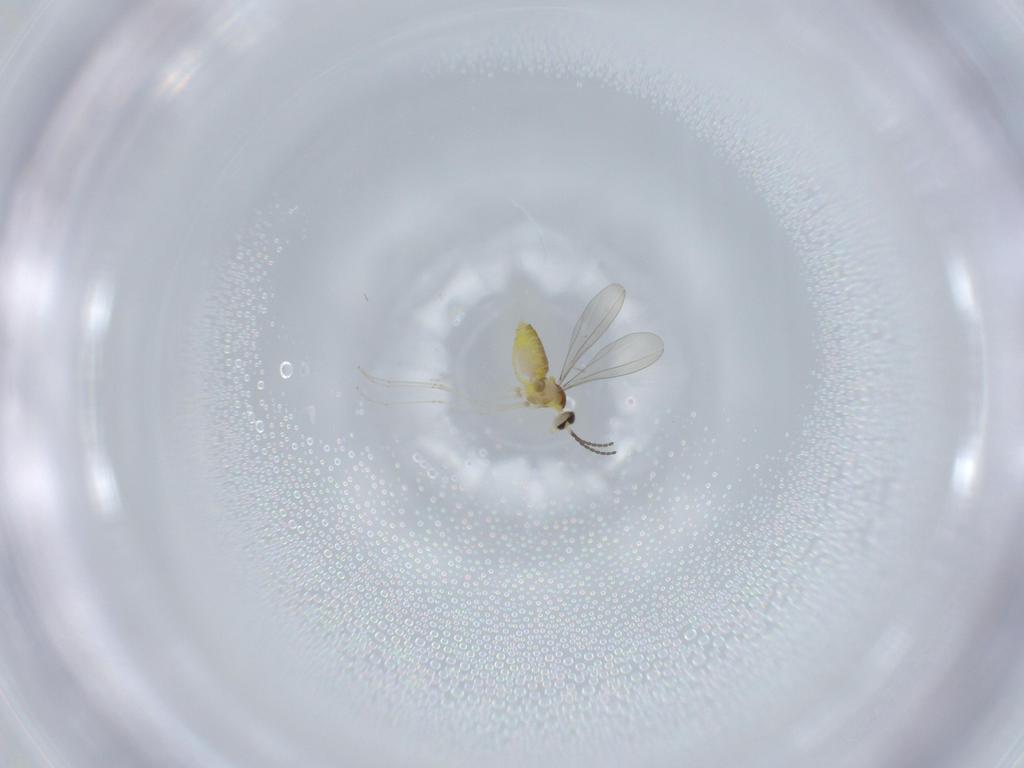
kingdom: Animalia
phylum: Arthropoda
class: Insecta
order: Diptera
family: Cecidomyiidae
